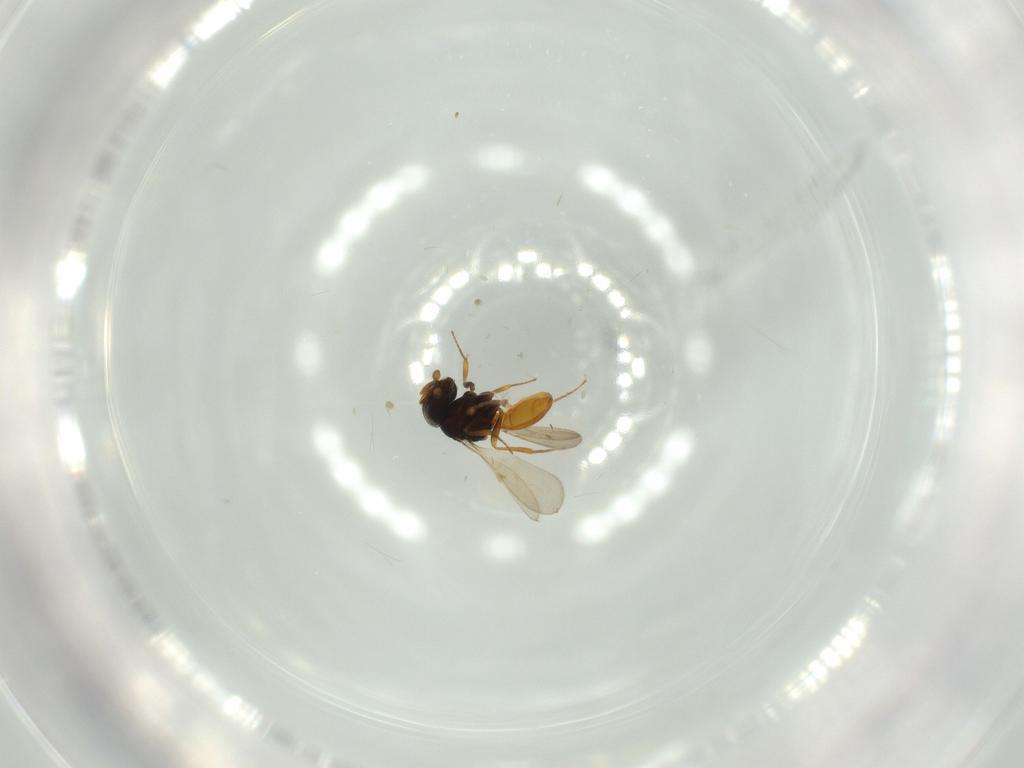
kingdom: Animalia
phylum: Arthropoda
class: Insecta
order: Hymenoptera
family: Scelionidae
